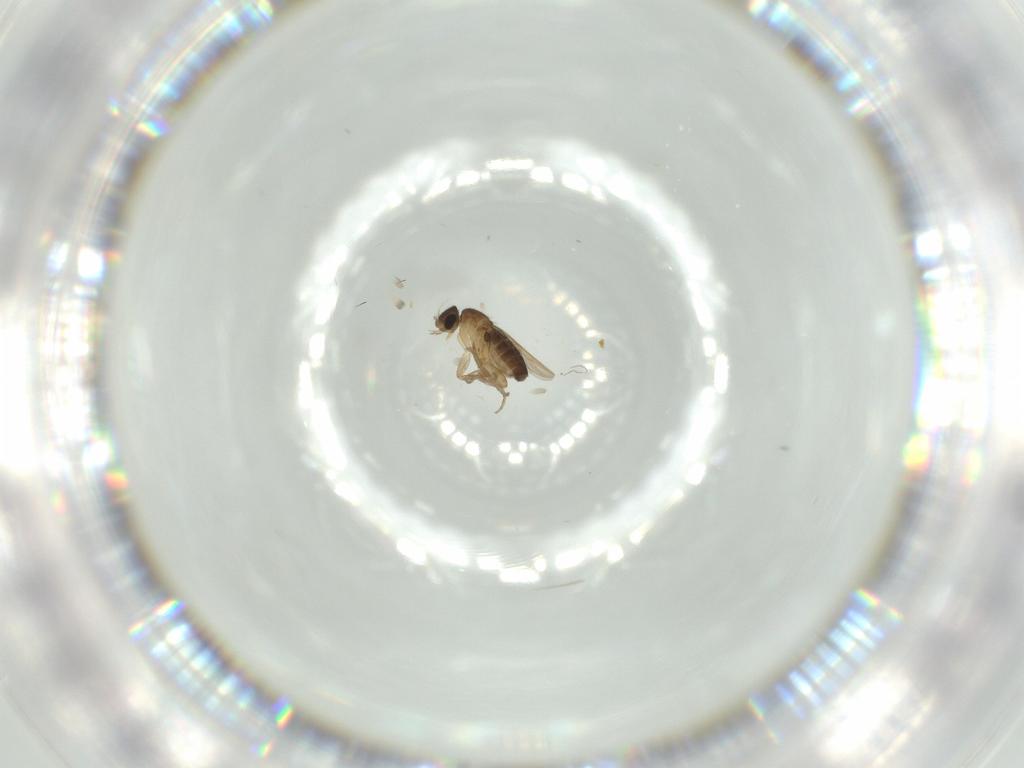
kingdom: Animalia
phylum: Arthropoda
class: Insecta
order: Diptera
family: Phoridae
